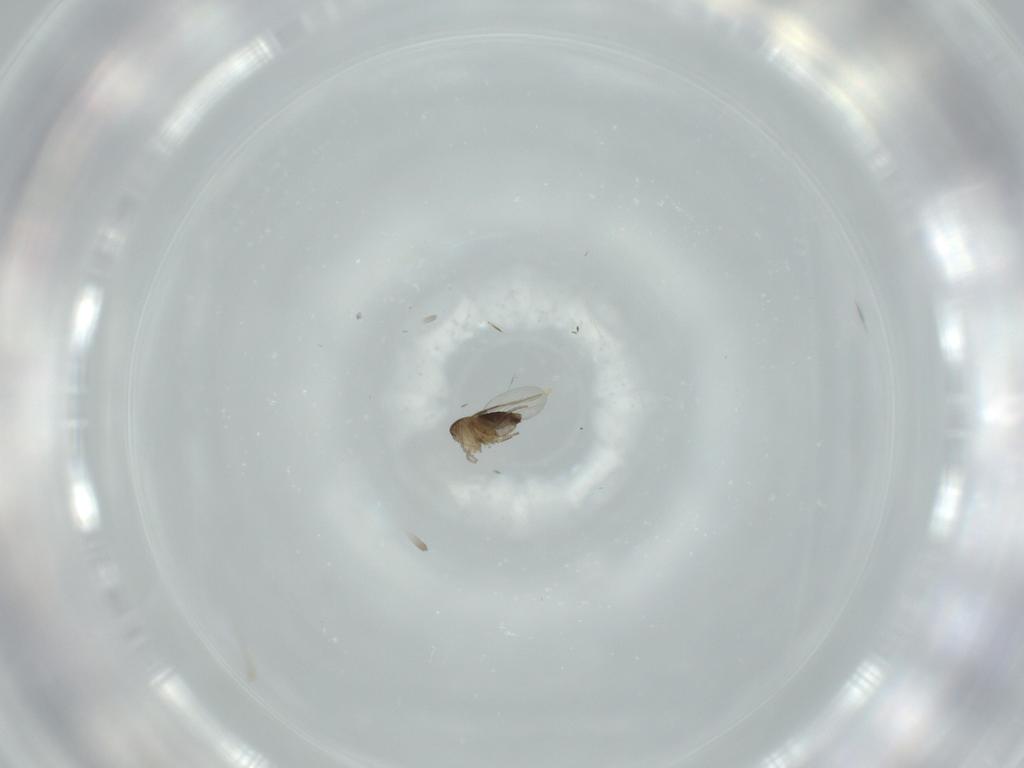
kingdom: Animalia
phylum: Arthropoda
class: Insecta
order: Diptera
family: Phoridae
